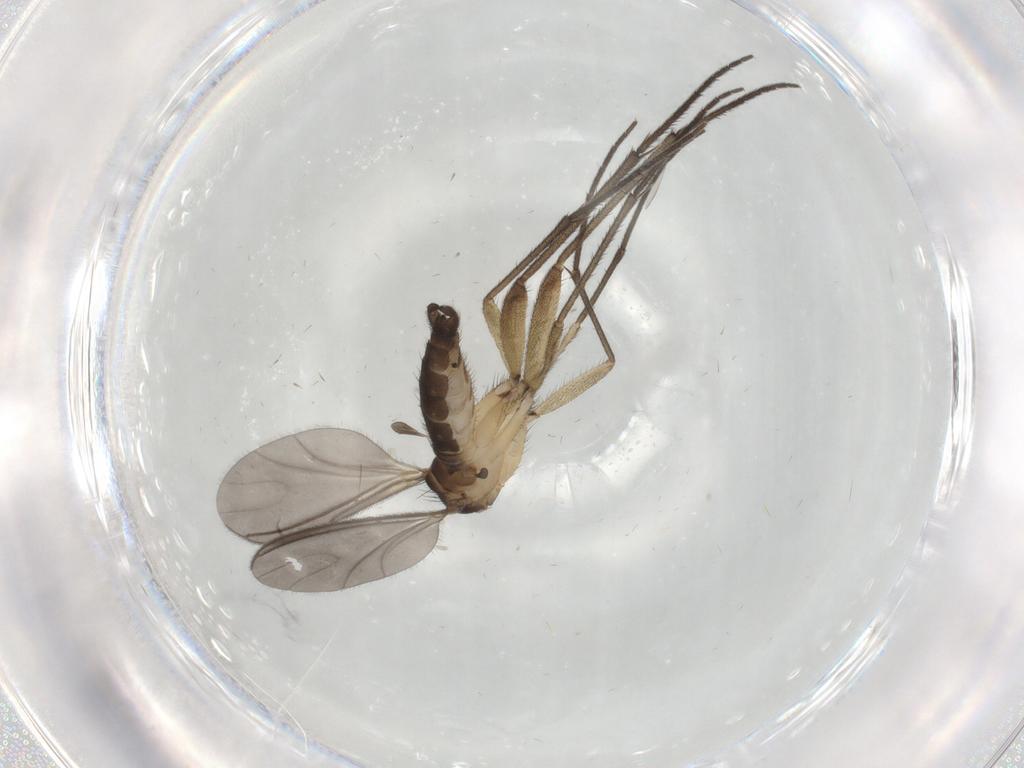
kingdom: Animalia
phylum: Arthropoda
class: Insecta
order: Diptera
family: Sciaridae
